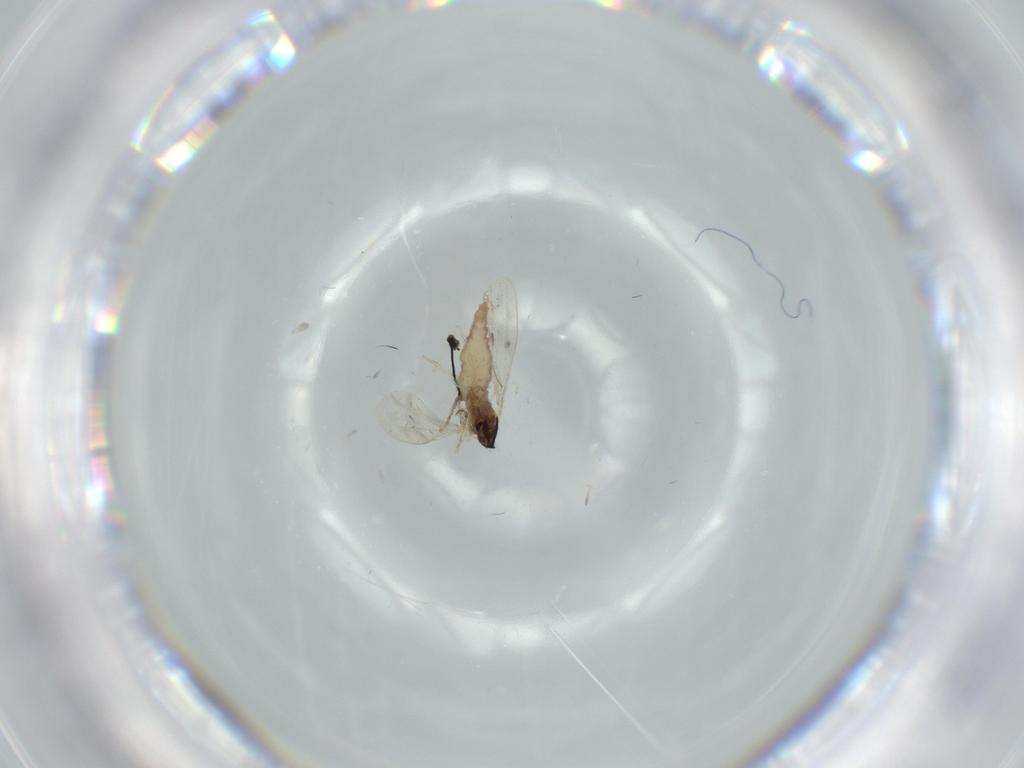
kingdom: Animalia
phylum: Arthropoda
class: Insecta
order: Diptera
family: Cecidomyiidae
